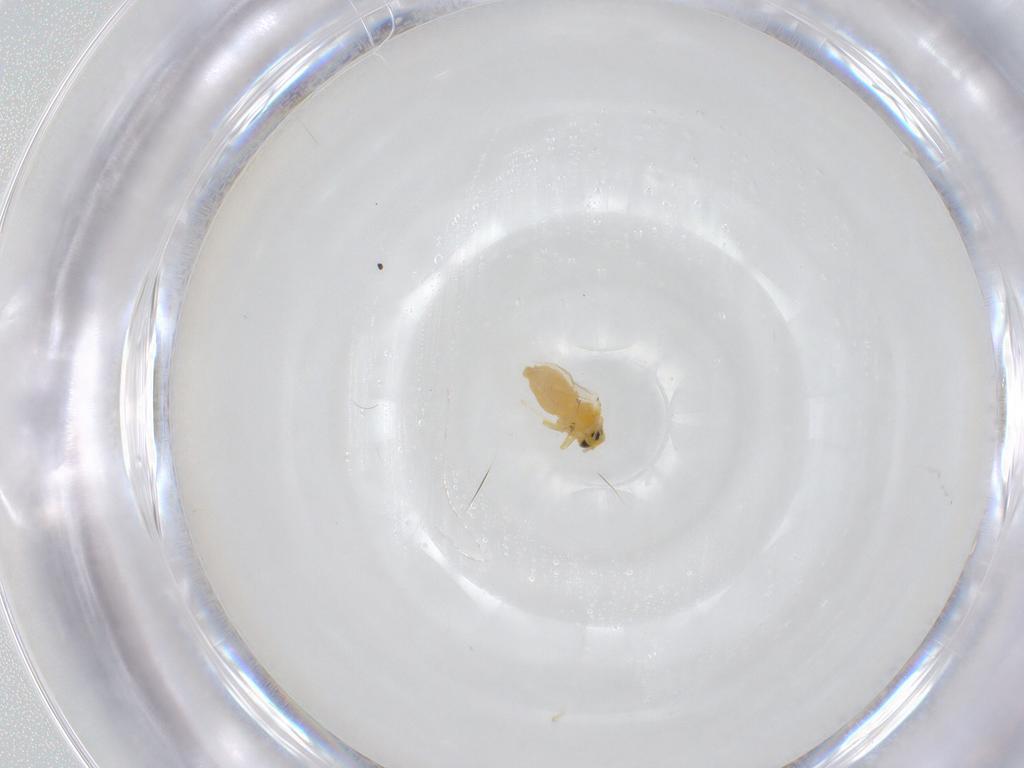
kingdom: Animalia
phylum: Arthropoda
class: Insecta
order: Hemiptera
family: Aleyrodidae
